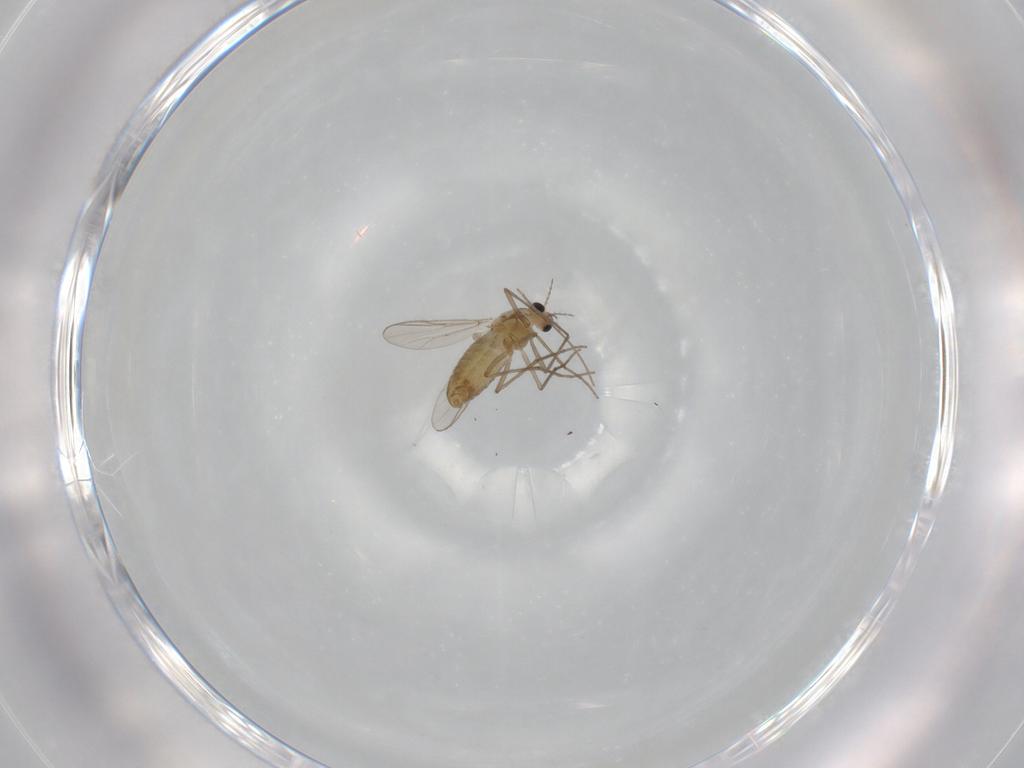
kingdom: Animalia
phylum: Arthropoda
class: Insecta
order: Diptera
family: Chironomidae
